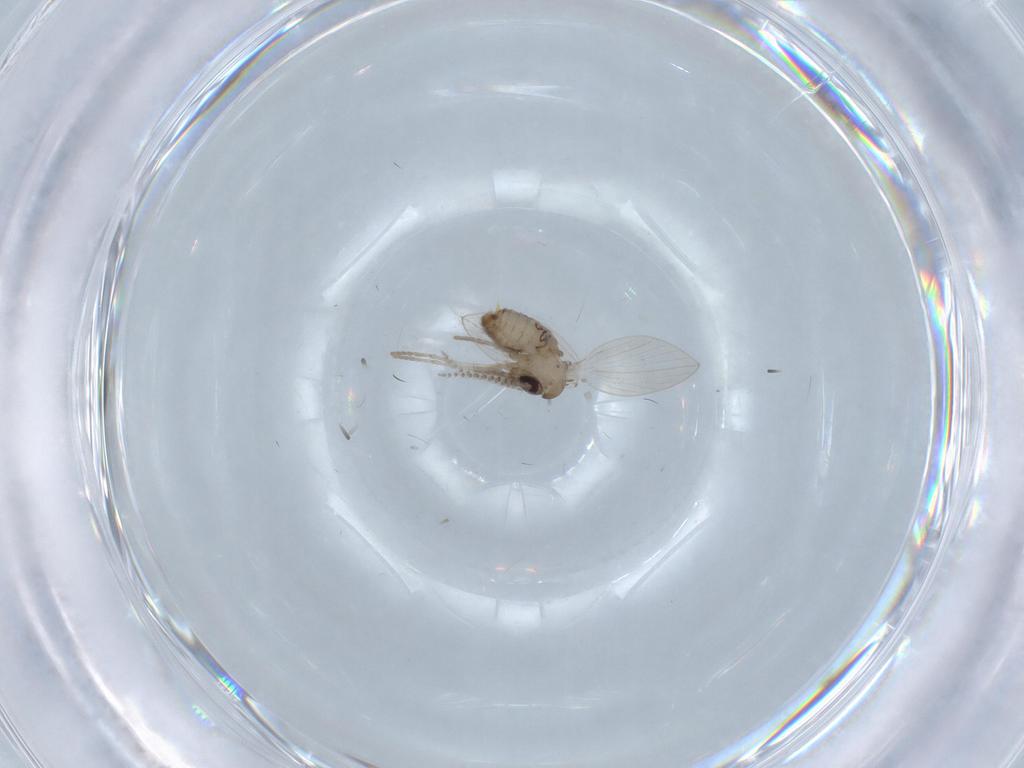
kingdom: Animalia
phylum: Arthropoda
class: Insecta
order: Diptera
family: Psychodidae
